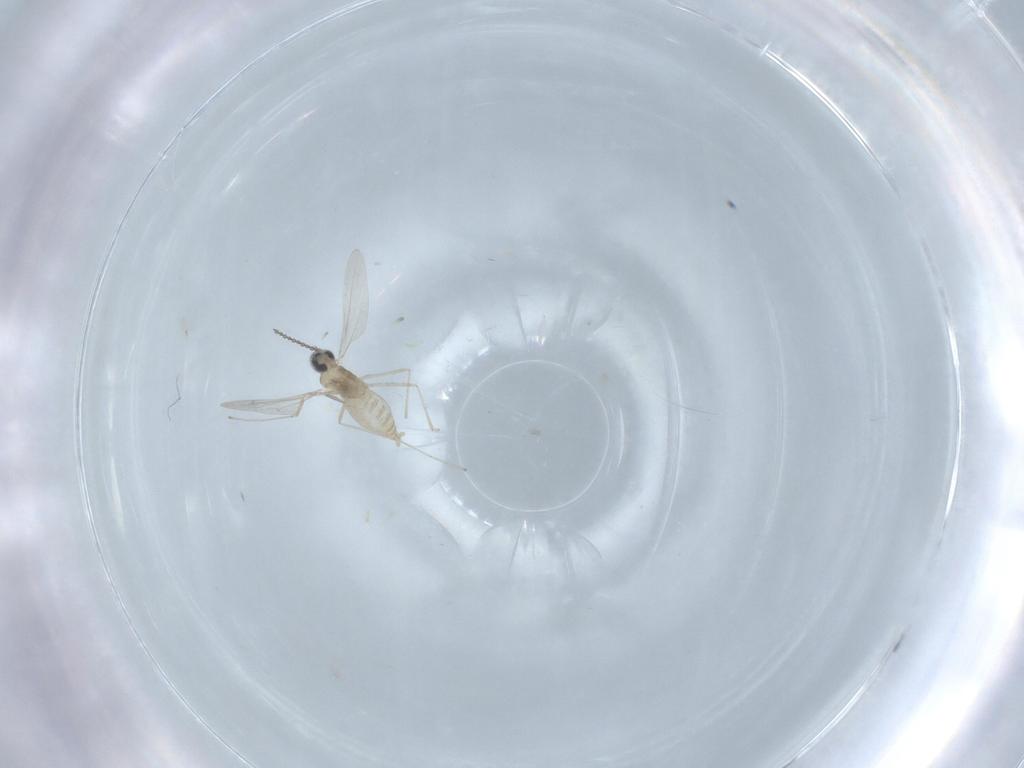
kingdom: Animalia
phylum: Arthropoda
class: Insecta
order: Diptera
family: Cecidomyiidae
